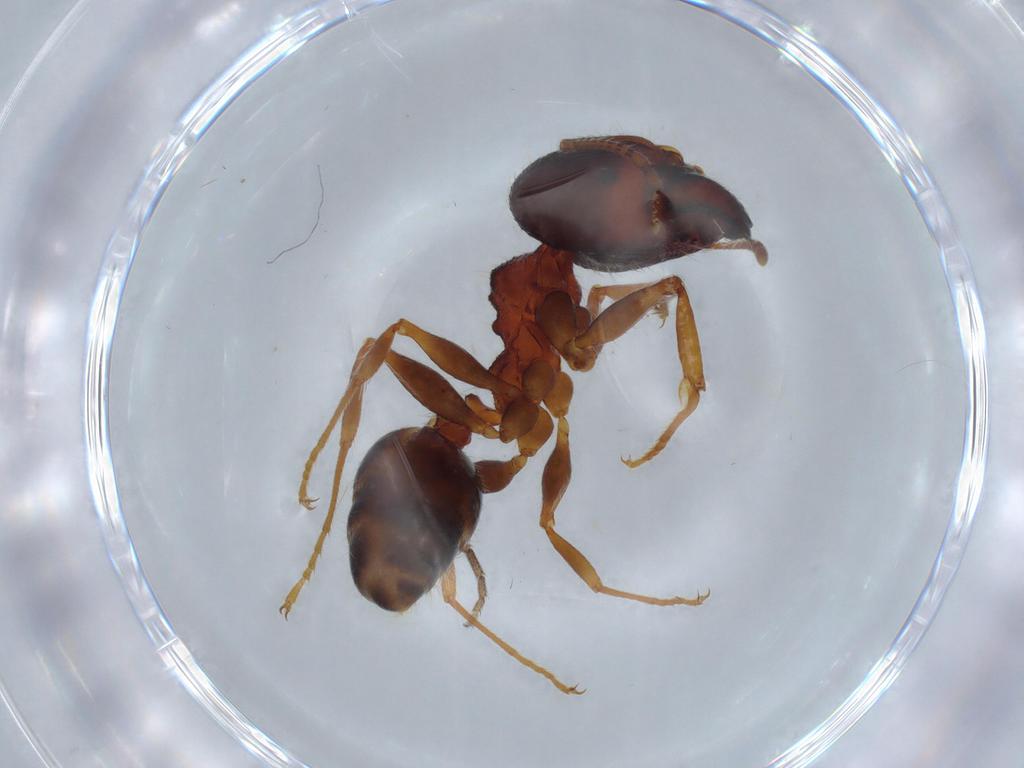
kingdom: Animalia
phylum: Arthropoda
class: Insecta
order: Hymenoptera
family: Formicidae
